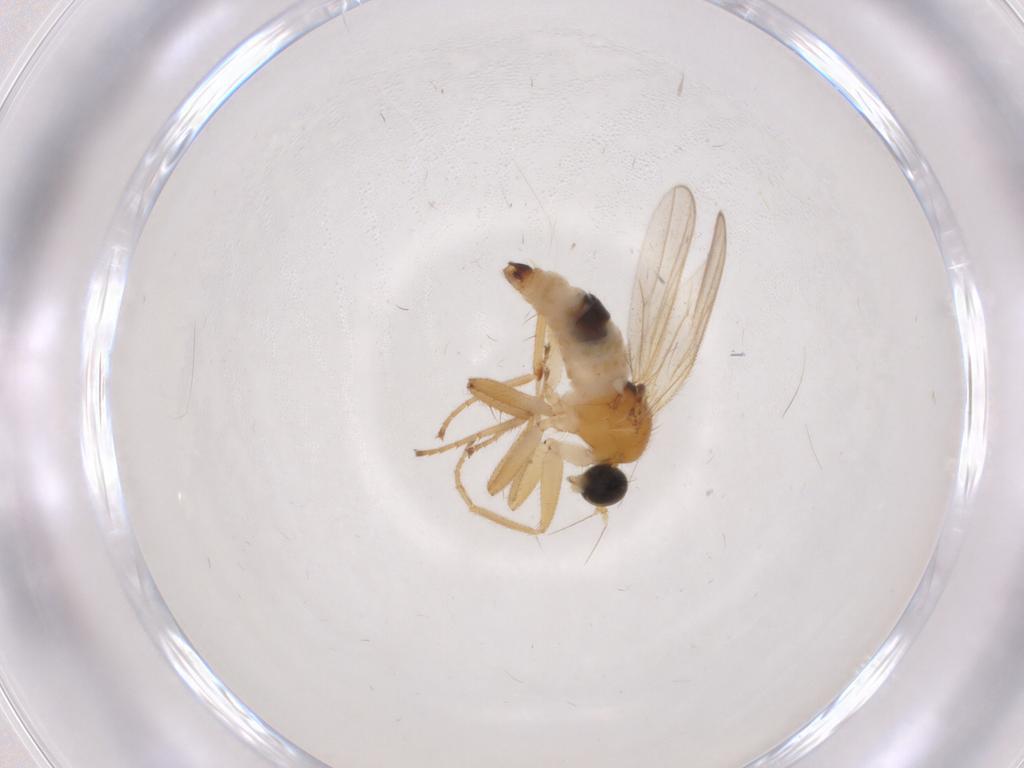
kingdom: Animalia
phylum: Arthropoda
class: Insecta
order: Diptera
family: Hybotidae
